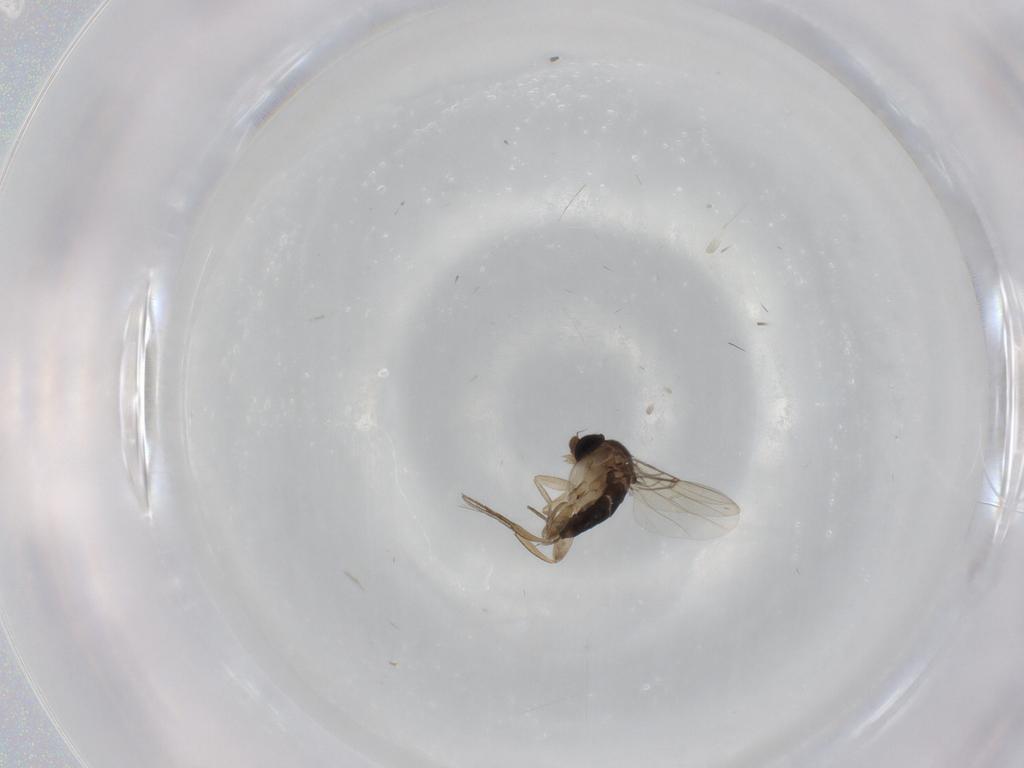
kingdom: Animalia
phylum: Arthropoda
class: Insecta
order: Diptera
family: Phoridae
